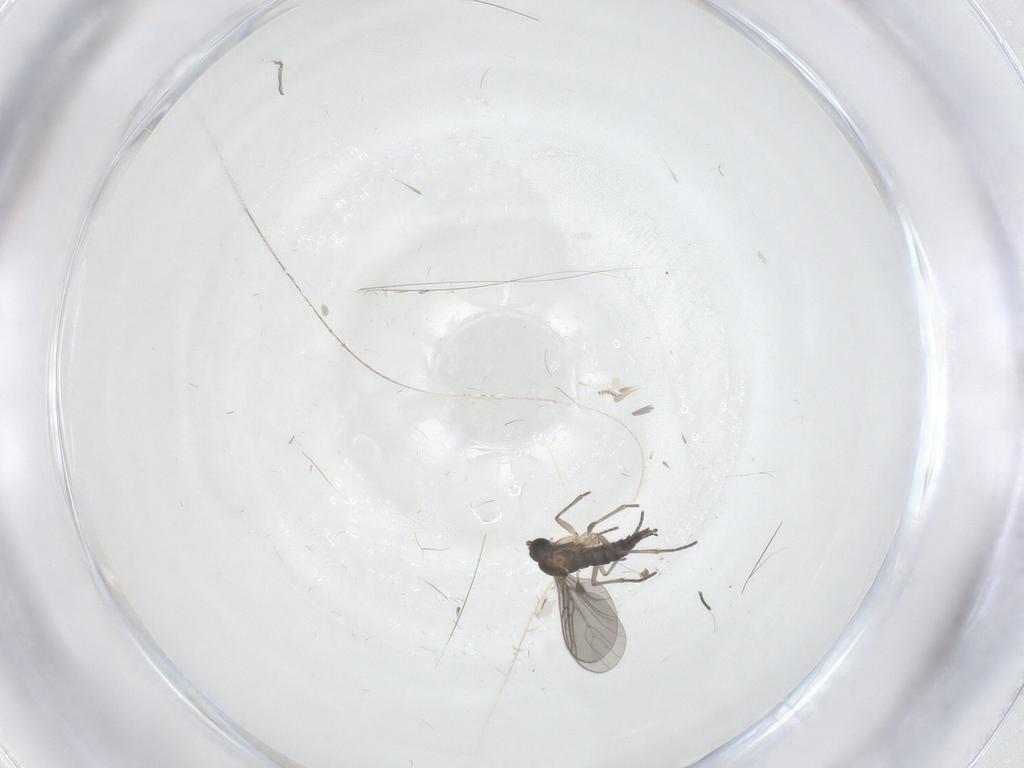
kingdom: Animalia
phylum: Arthropoda
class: Insecta
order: Diptera
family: Sciaridae
